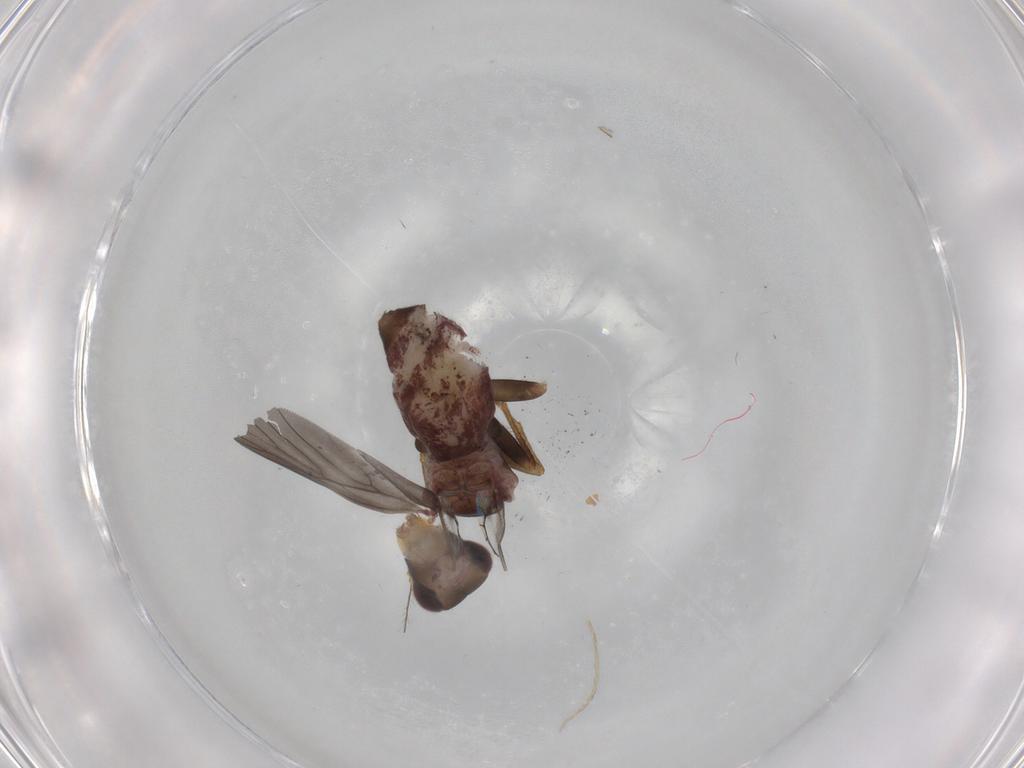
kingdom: Animalia
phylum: Arthropoda
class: Insecta
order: Psocodea
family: Lepidopsocidae
